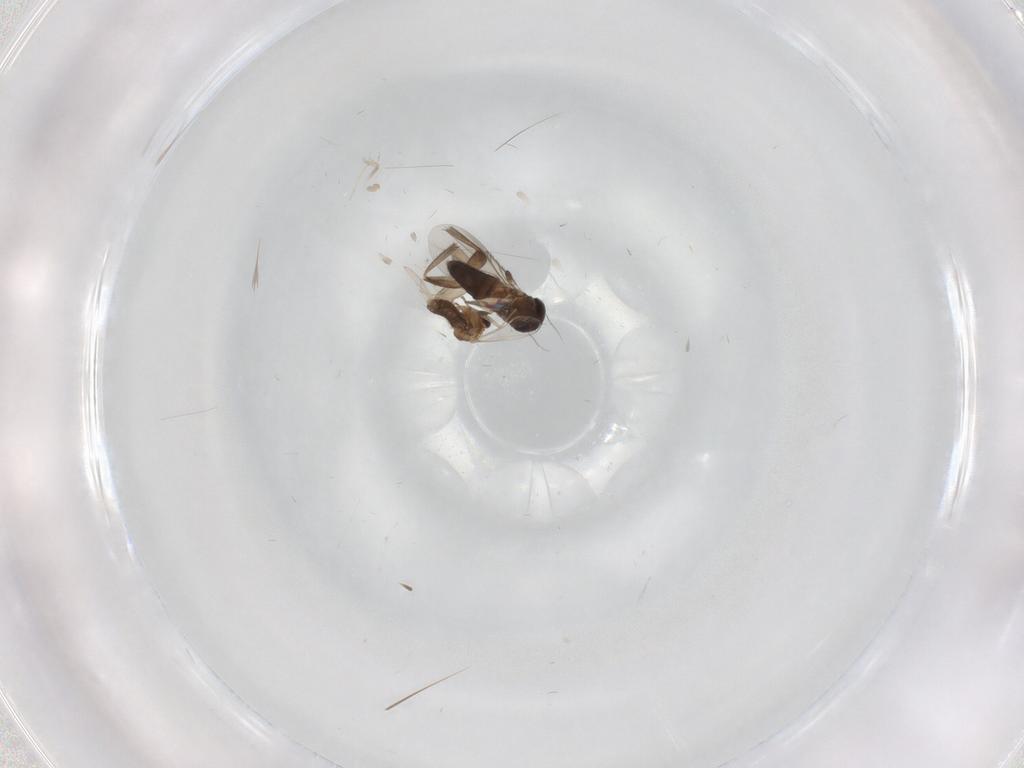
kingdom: Animalia
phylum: Arthropoda
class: Insecta
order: Diptera
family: Phoridae
